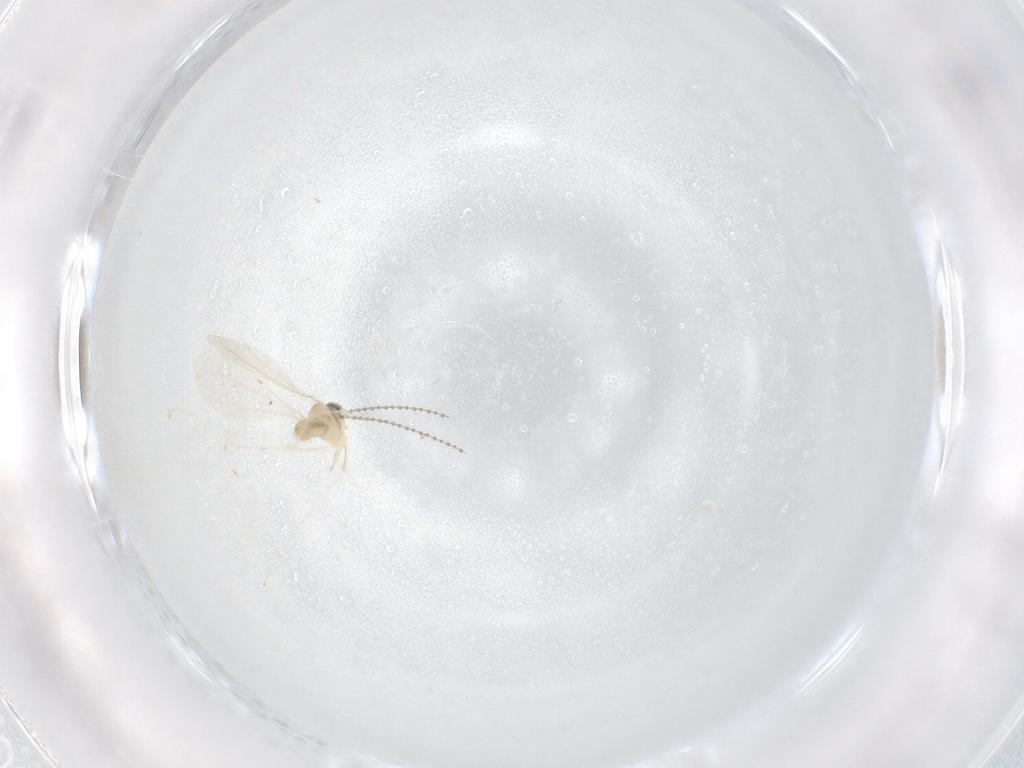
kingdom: Animalia
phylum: Arthropoda
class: Insecta
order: Diptera
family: Cecidomyiidae
